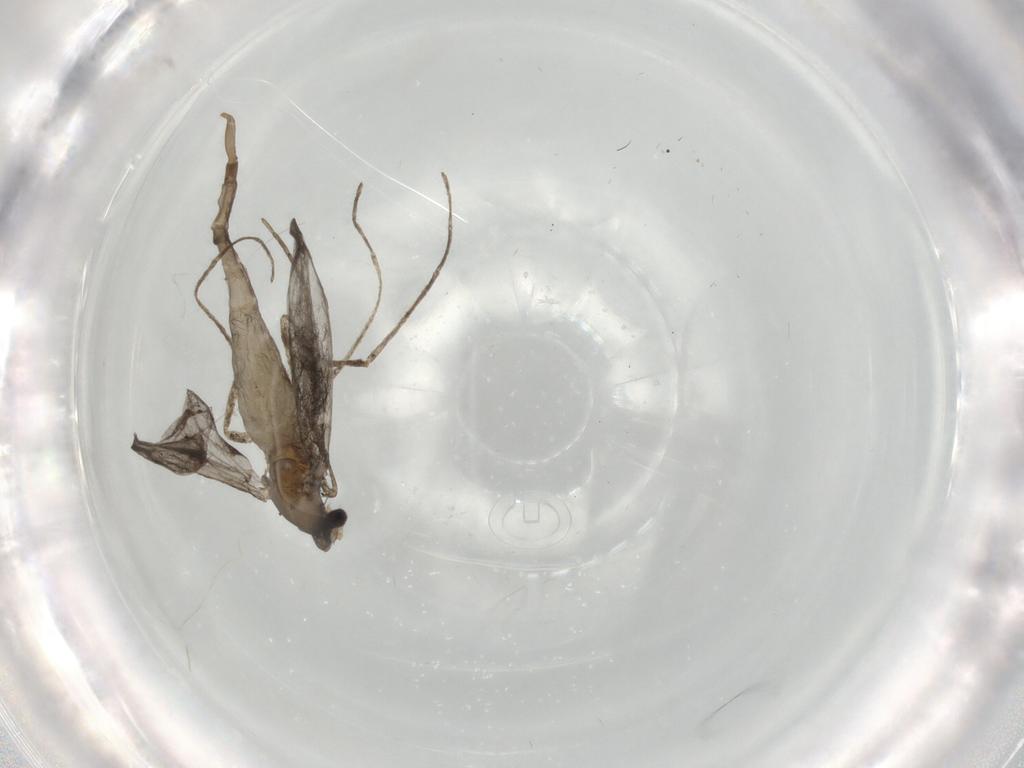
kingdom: Animalia
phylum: Arthropoda
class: Insecta
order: Diptera
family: Cecidomyiidae
